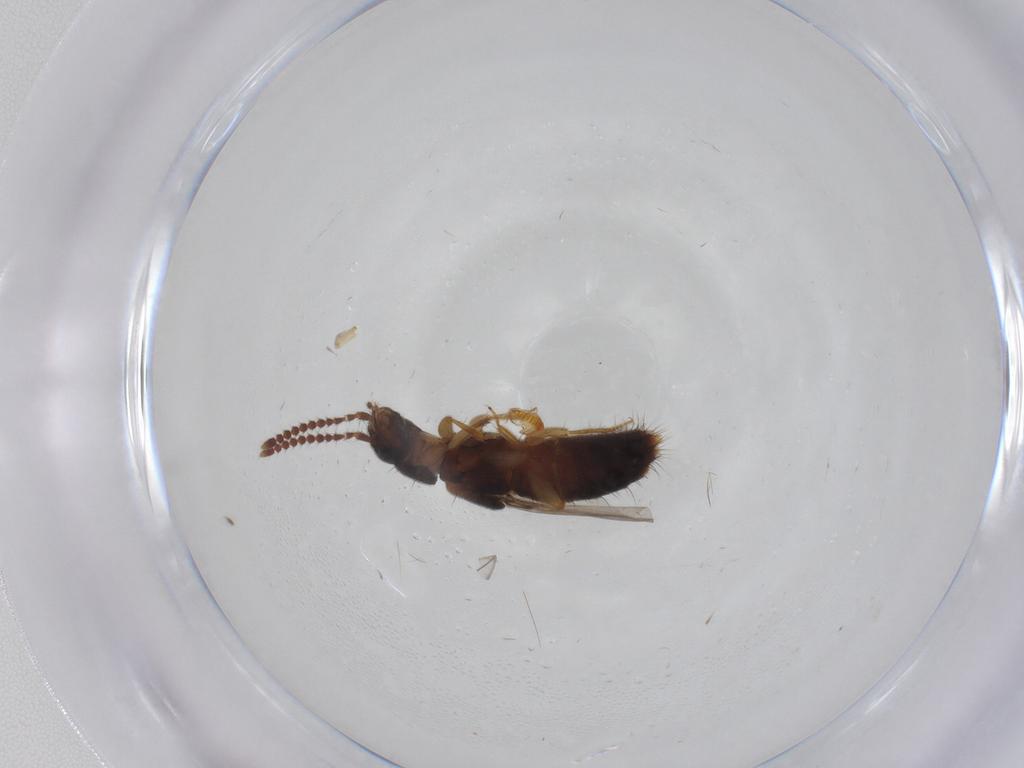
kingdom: Animalia
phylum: Arthropoda
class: Insecta
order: Coleoptera
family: Staphylinidae
